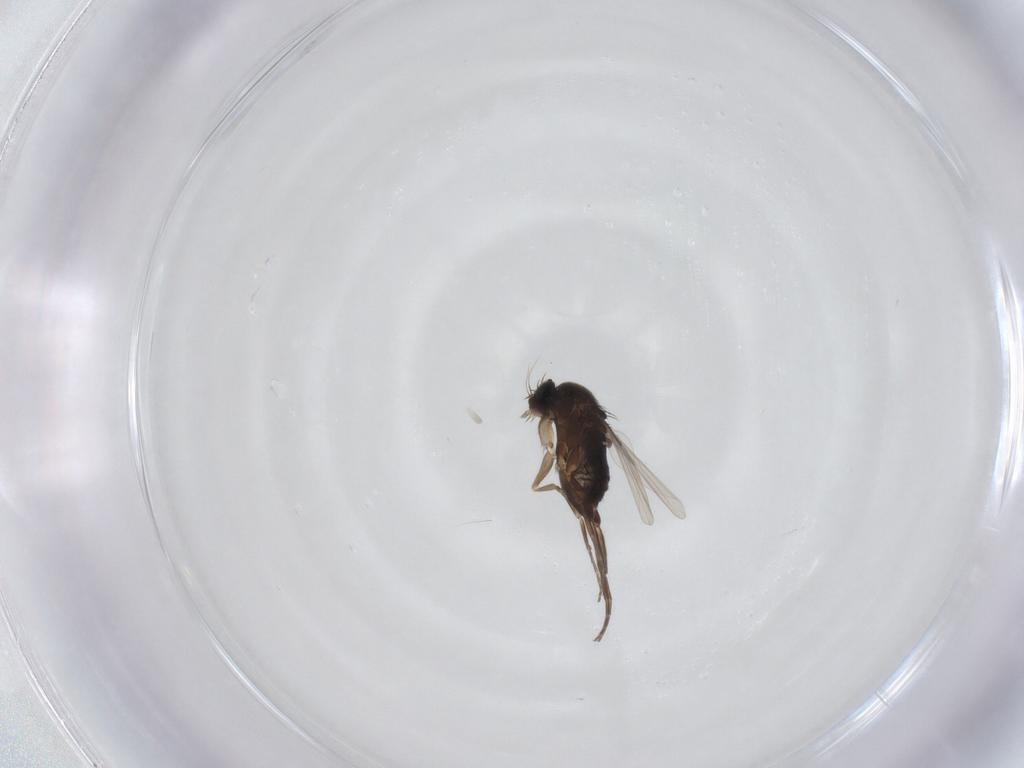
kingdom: Animalia
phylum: Arthropoda
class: Insecta
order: Diptera
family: Phoridae
